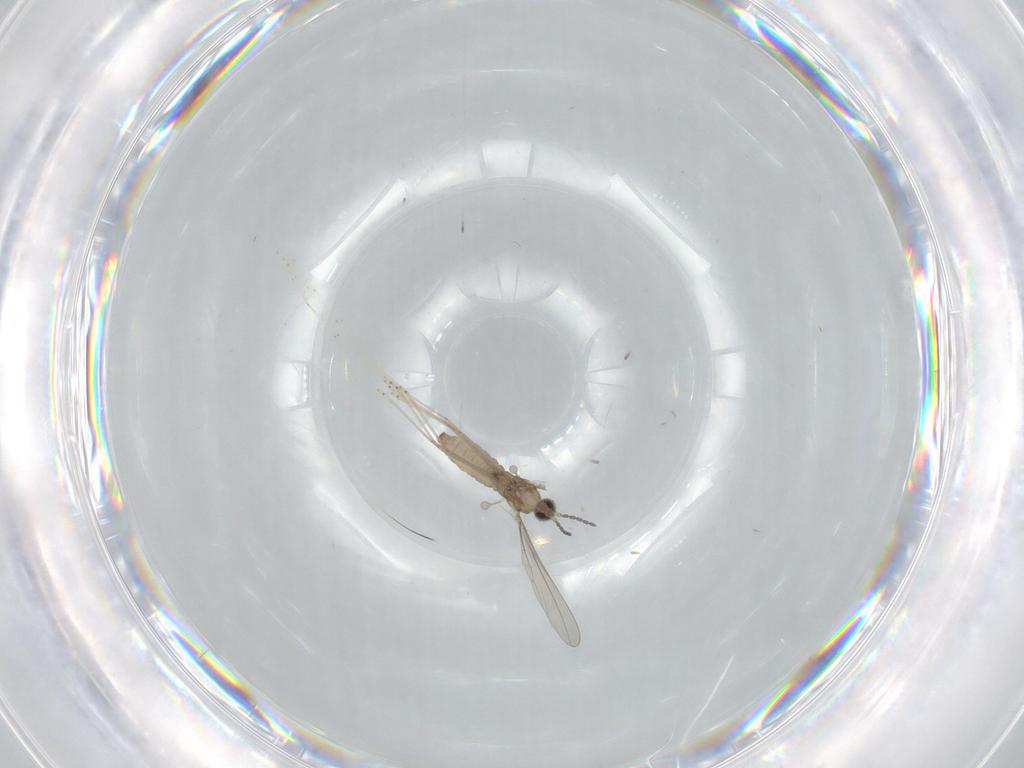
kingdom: Animalia
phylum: Arthropoda
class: Insecta
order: Diptera
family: Cecidomyiidae
